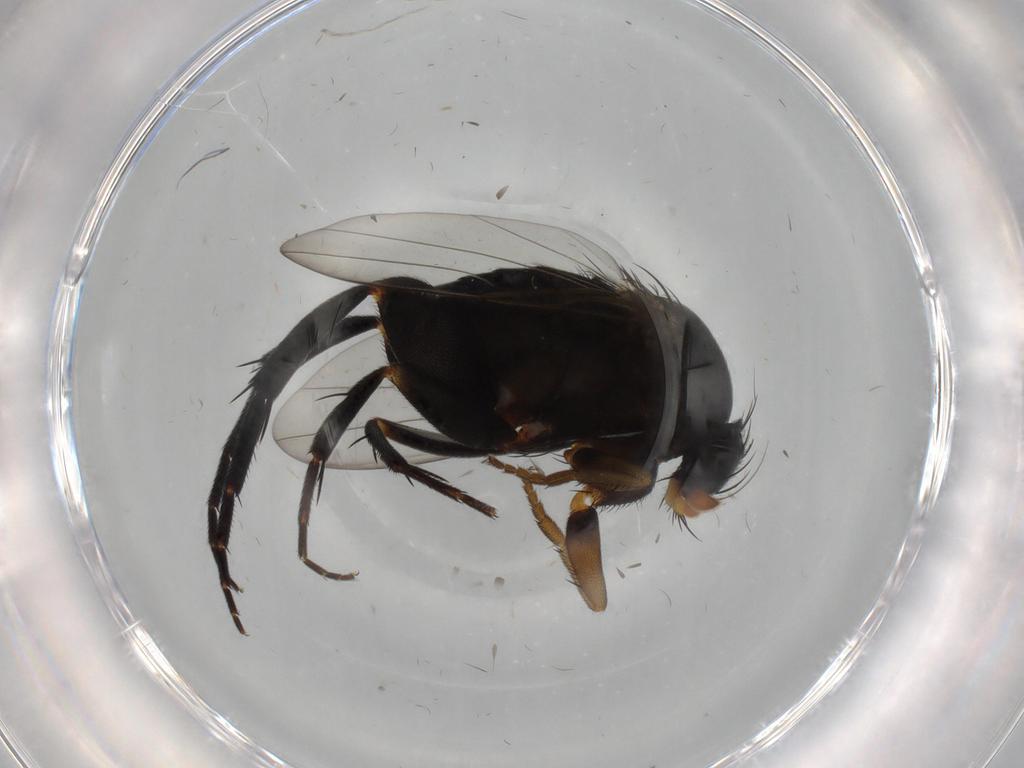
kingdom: Animalia
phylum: Arthropoda
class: Insecta
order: Diptera
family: Phoridae
